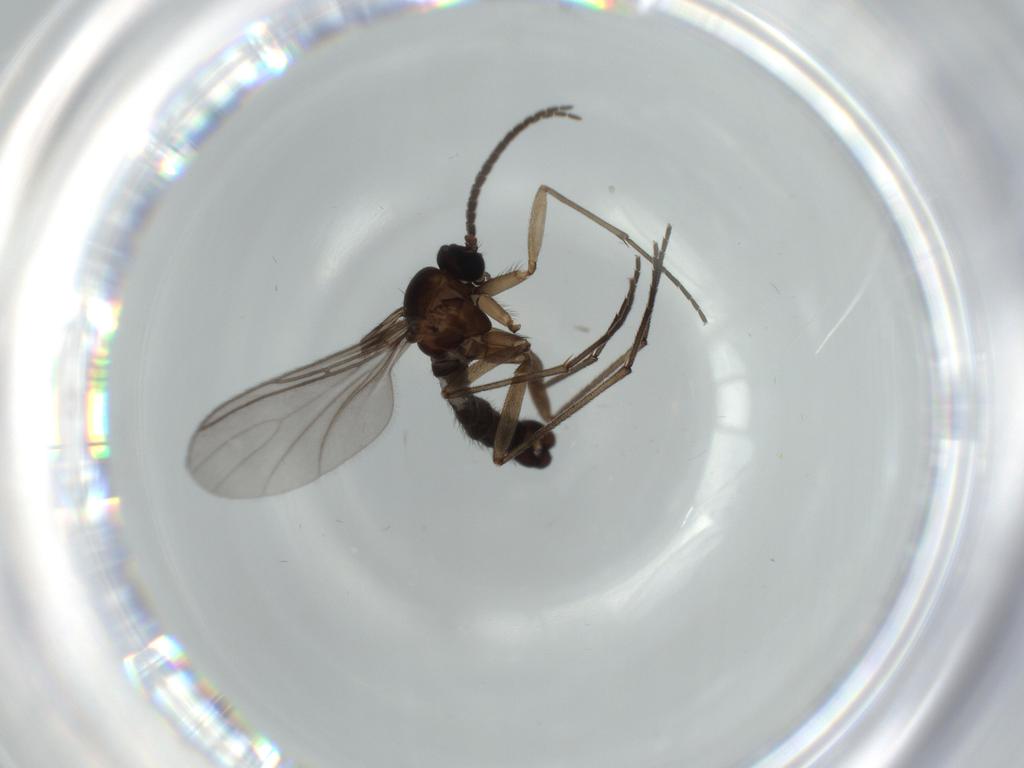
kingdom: Animalia
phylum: Arthropoda
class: Insecta
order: Diptera
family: Sciaridae
